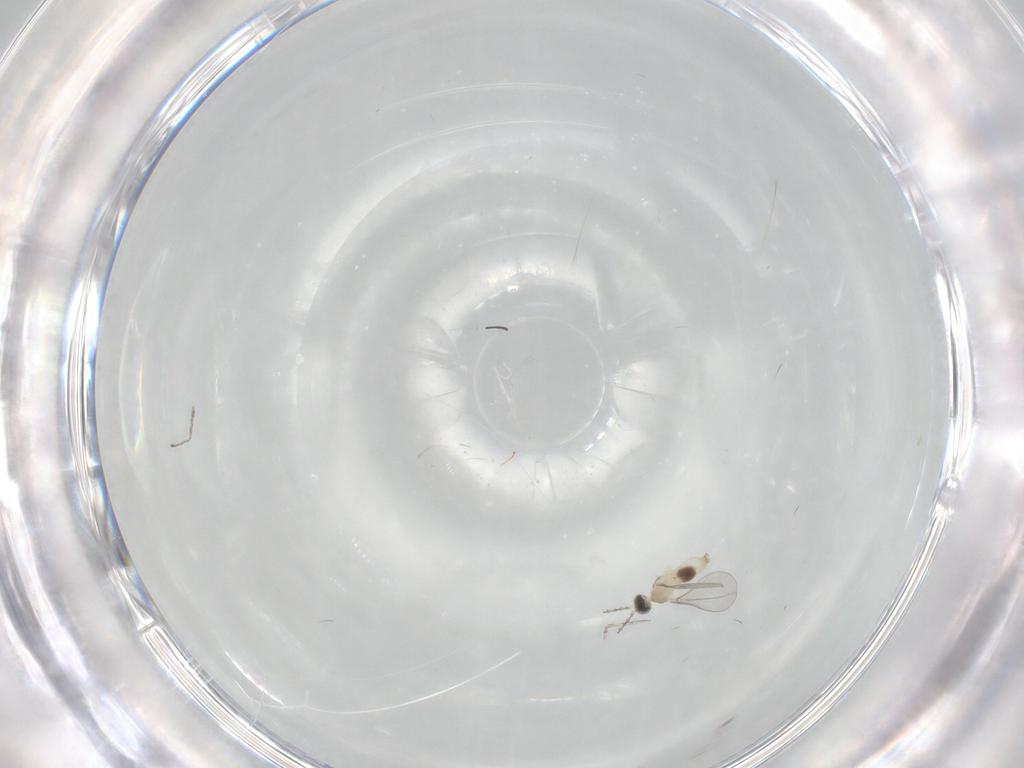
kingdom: Animalia
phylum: Arthropoda
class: Insecta
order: Diptera
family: Cecidomyiidae
